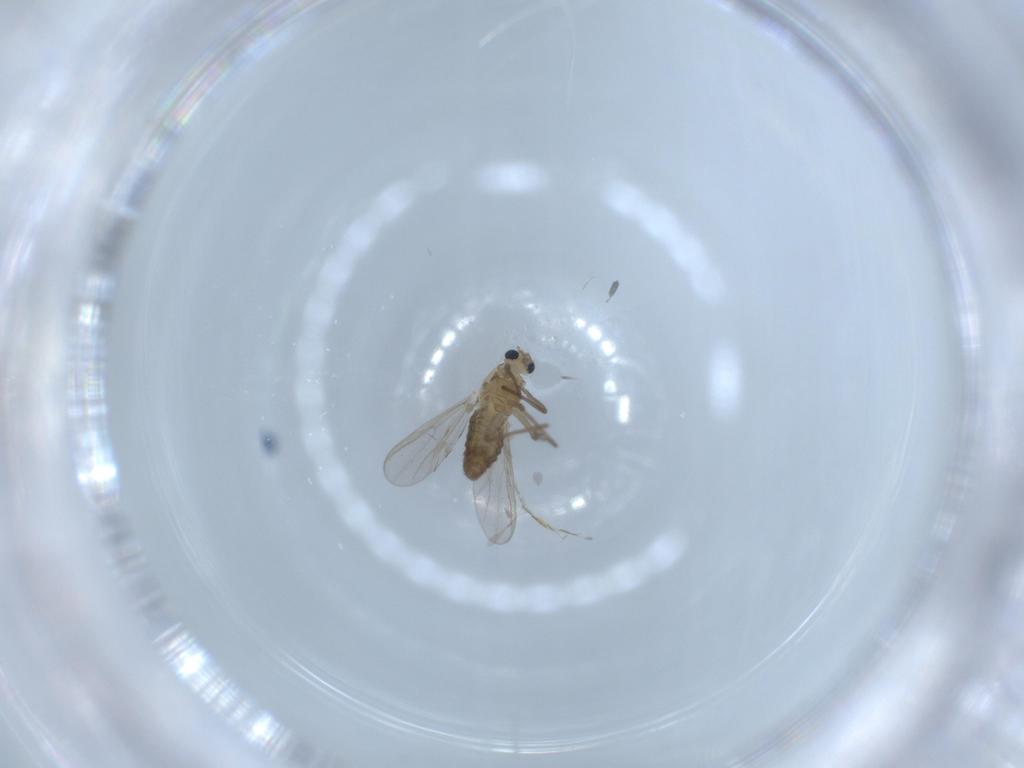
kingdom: Animalia
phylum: Arthropoda
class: Insecta
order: Diptera
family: Chironomidae
